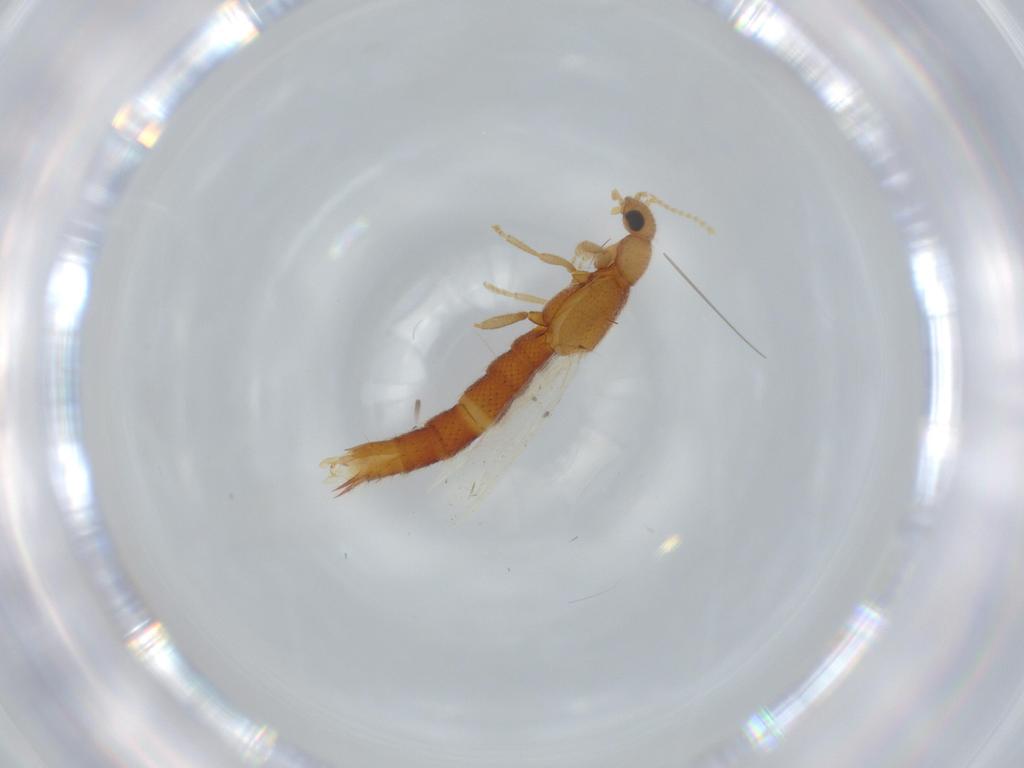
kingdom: Animalia
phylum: Arthropoda
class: Insecta
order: Coleoptera
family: Staphylinidae
